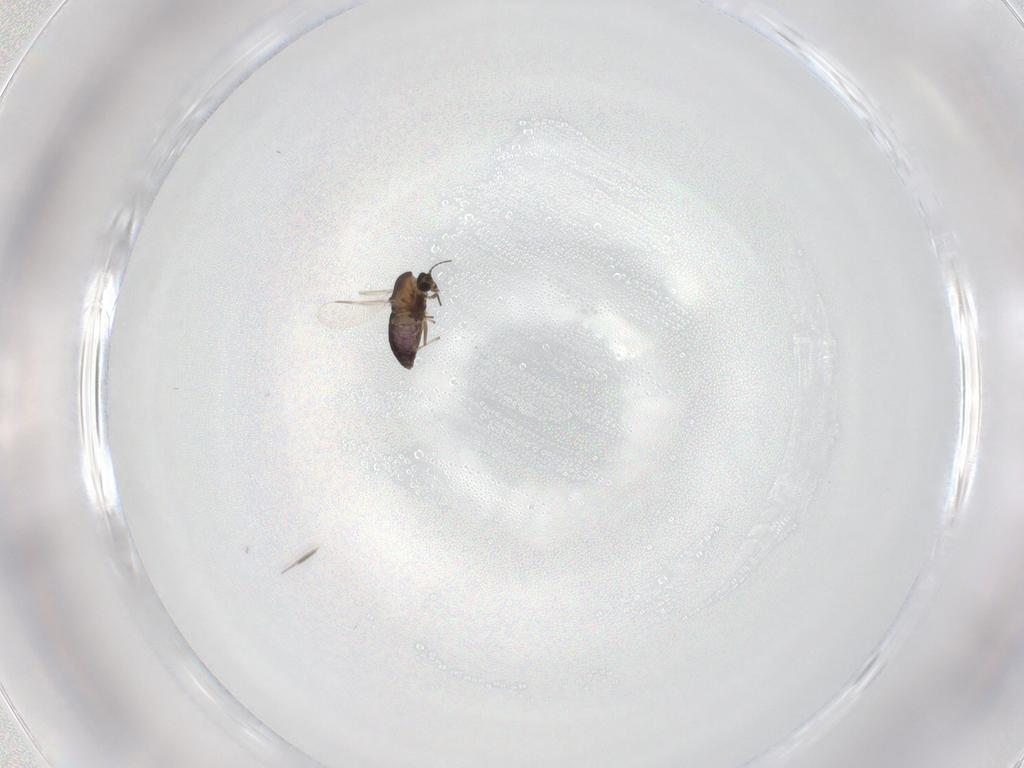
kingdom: Animalia
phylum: Arthropoda
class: Insecta
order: Diptera
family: Chironomidae
